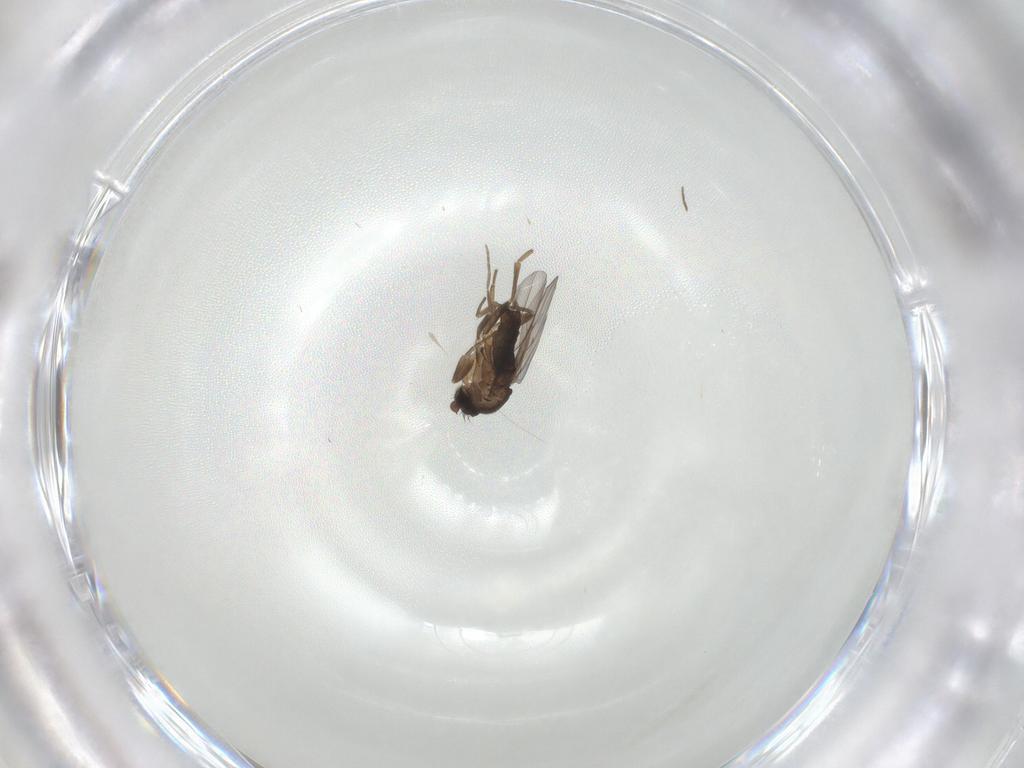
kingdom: Animalia
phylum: Arthropoda
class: Insecta
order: Diptera
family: Phoridae
